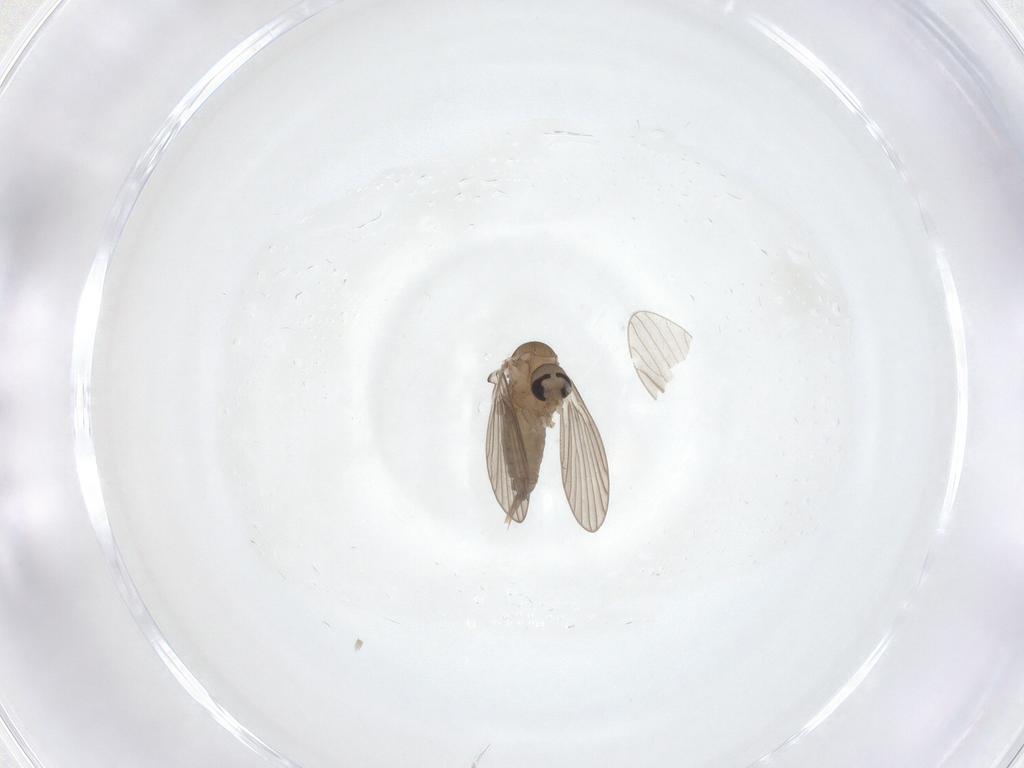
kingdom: Animalia
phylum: Arthropoda
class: Insecta
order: Diptera
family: Psychodidae
